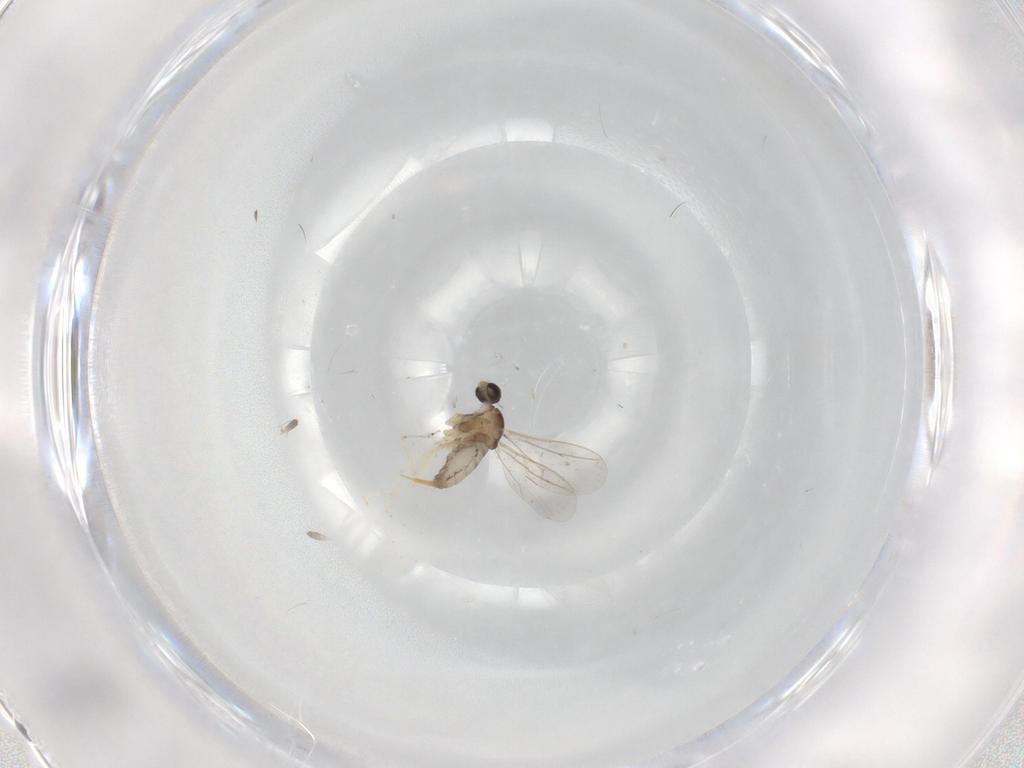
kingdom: Animalia
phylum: Arthropoda
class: Insecta
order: Diptera
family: Cecidomyiidae
